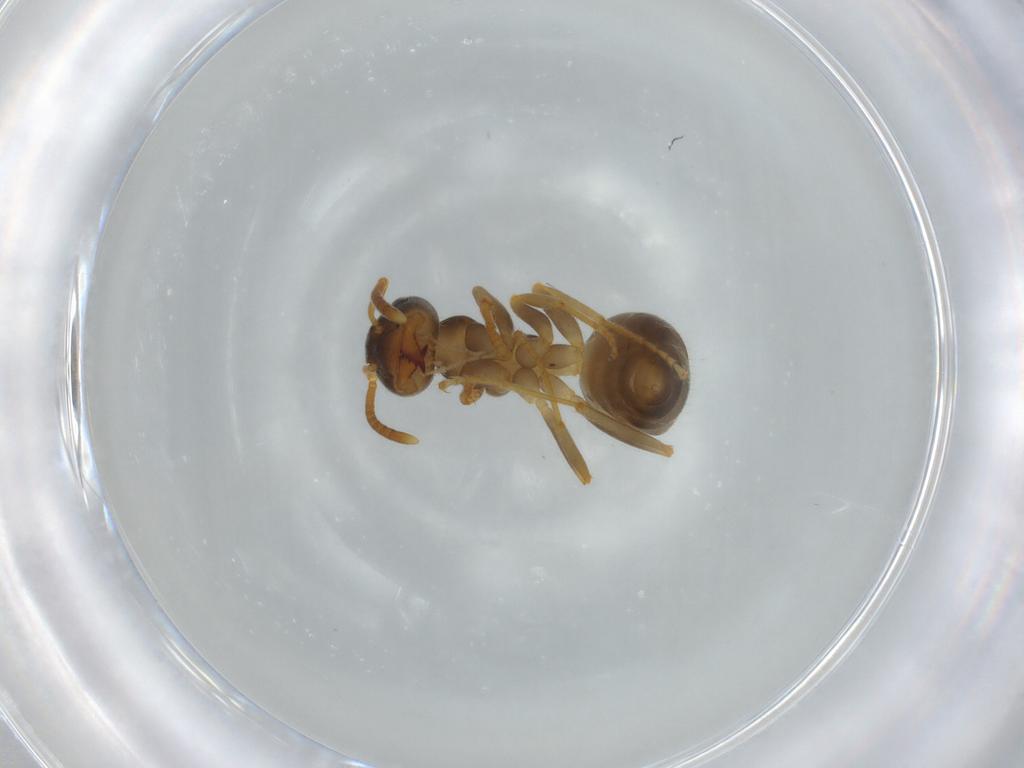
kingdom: Animalia
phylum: Arthropoda
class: Insecta
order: Hymenoptera
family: Formicidae
